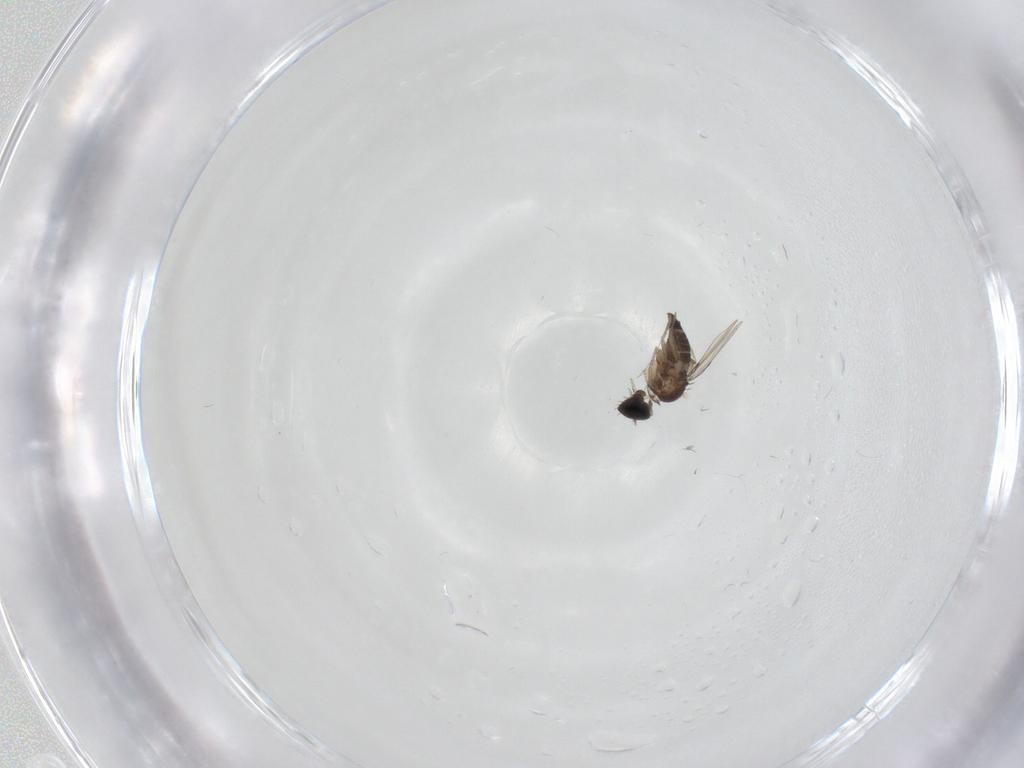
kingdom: Animalia
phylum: Arthropoda
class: Insecta
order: Diptera
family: Phoridae
